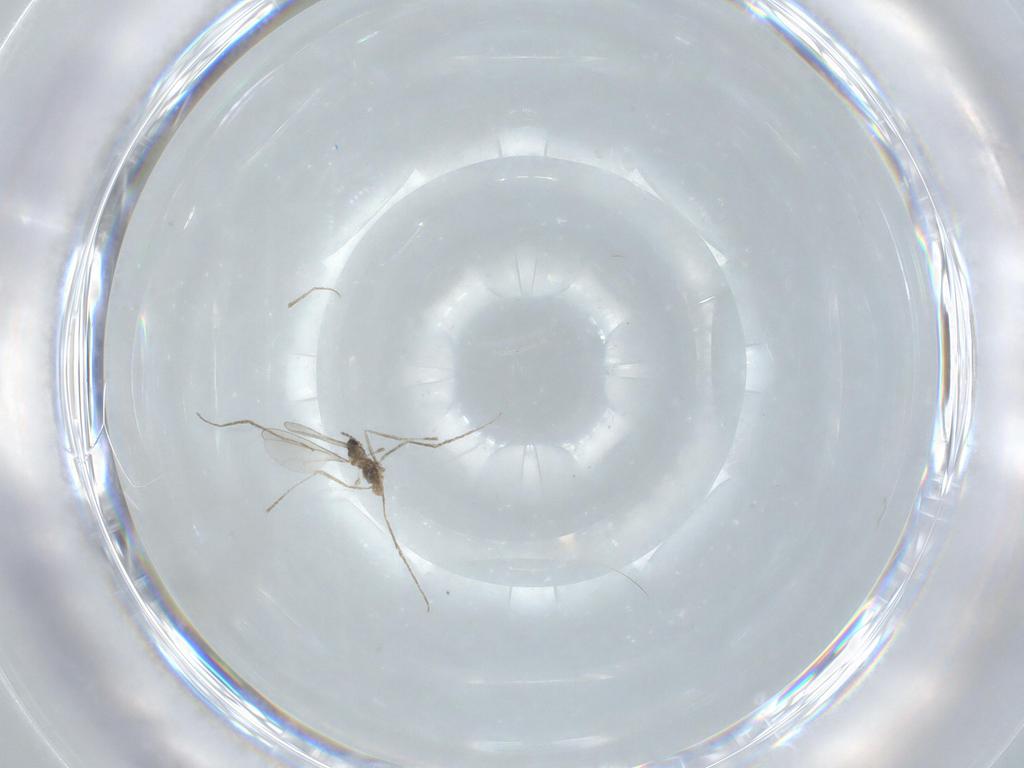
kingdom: Animalia
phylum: Arthropoda
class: Insecta
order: Diptera
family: Cecidomyiidae
